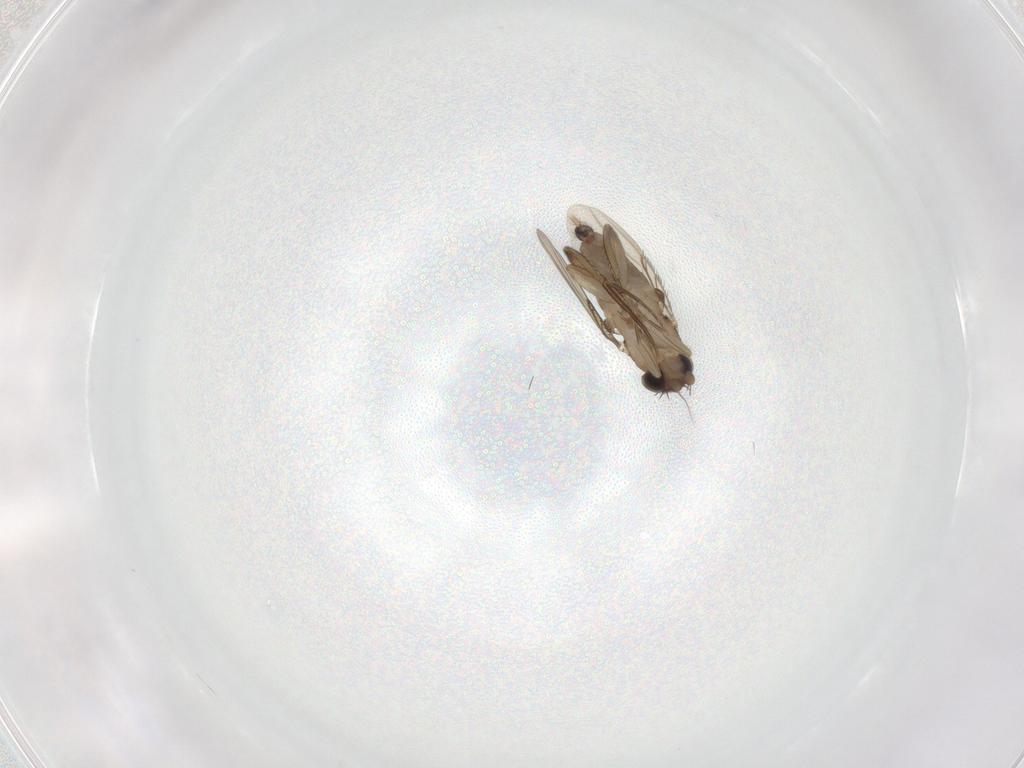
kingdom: Animalia
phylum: Arthropoda
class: Insecta
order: Diptera
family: Phoridae
